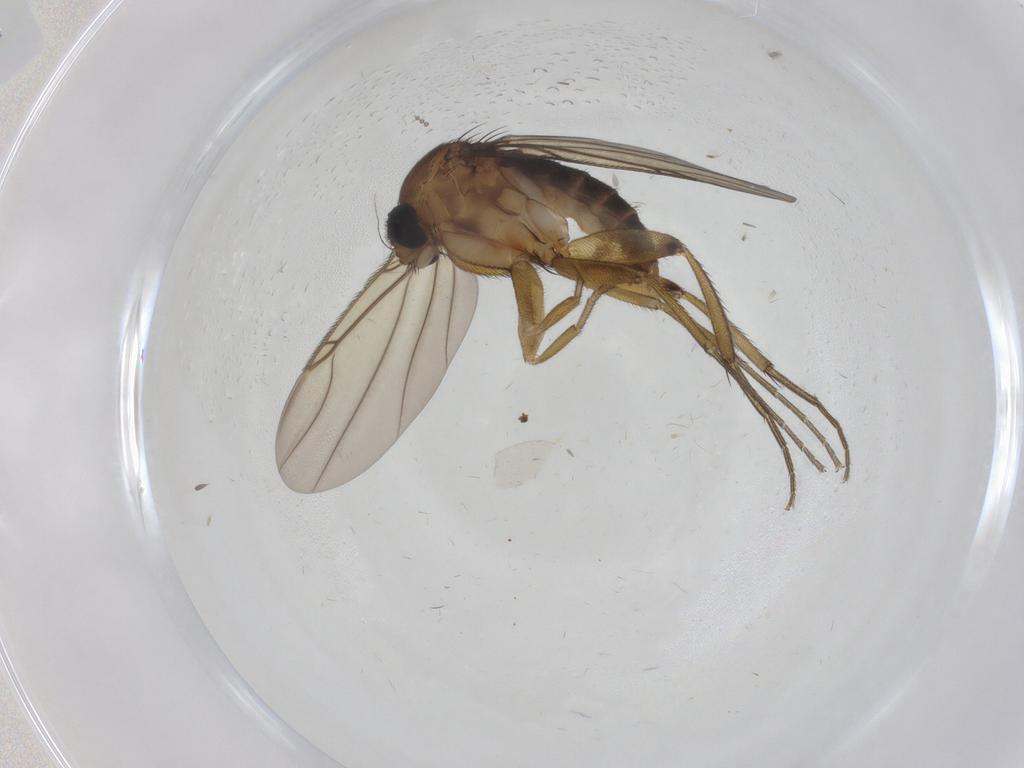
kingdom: Animalia
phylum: Arthropoda
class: Insecta
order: Diptera
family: Phoridae
